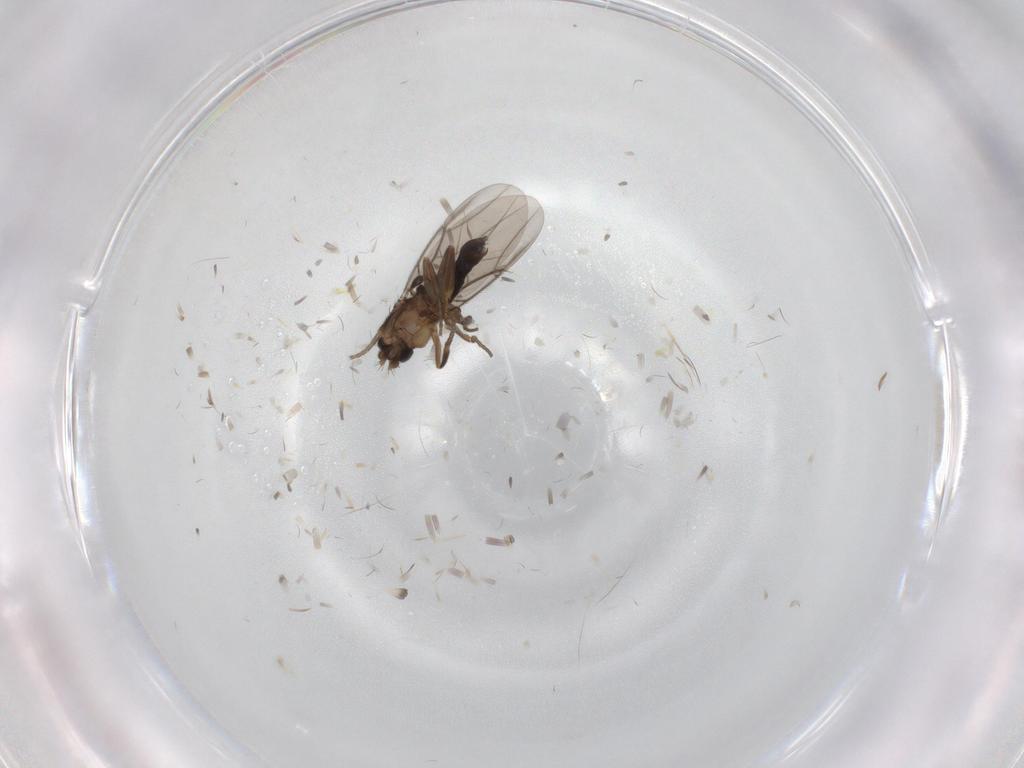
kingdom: Animalia
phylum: Arthropoda
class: Insecta
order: Diptera
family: Phoridae
